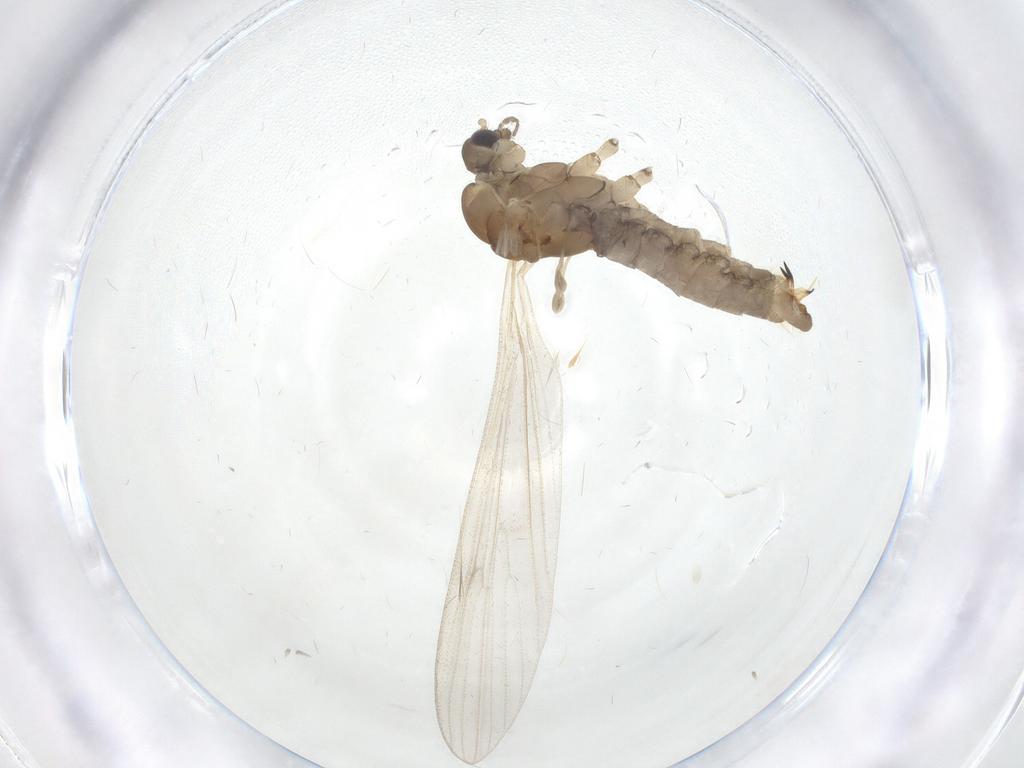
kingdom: Animalia
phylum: Arthropoda
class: Insecta
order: Diptera
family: Limoniidae
